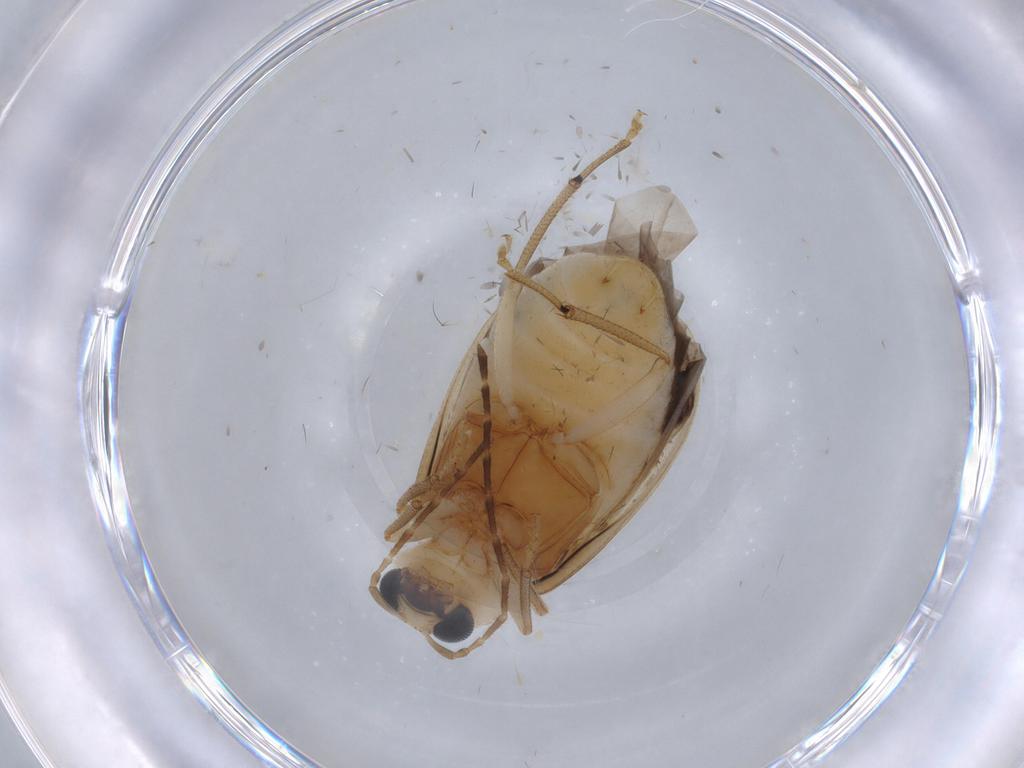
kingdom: Animalia
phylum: Arthropoda
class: Insecta
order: Coleoptera
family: Chrysomelidae
